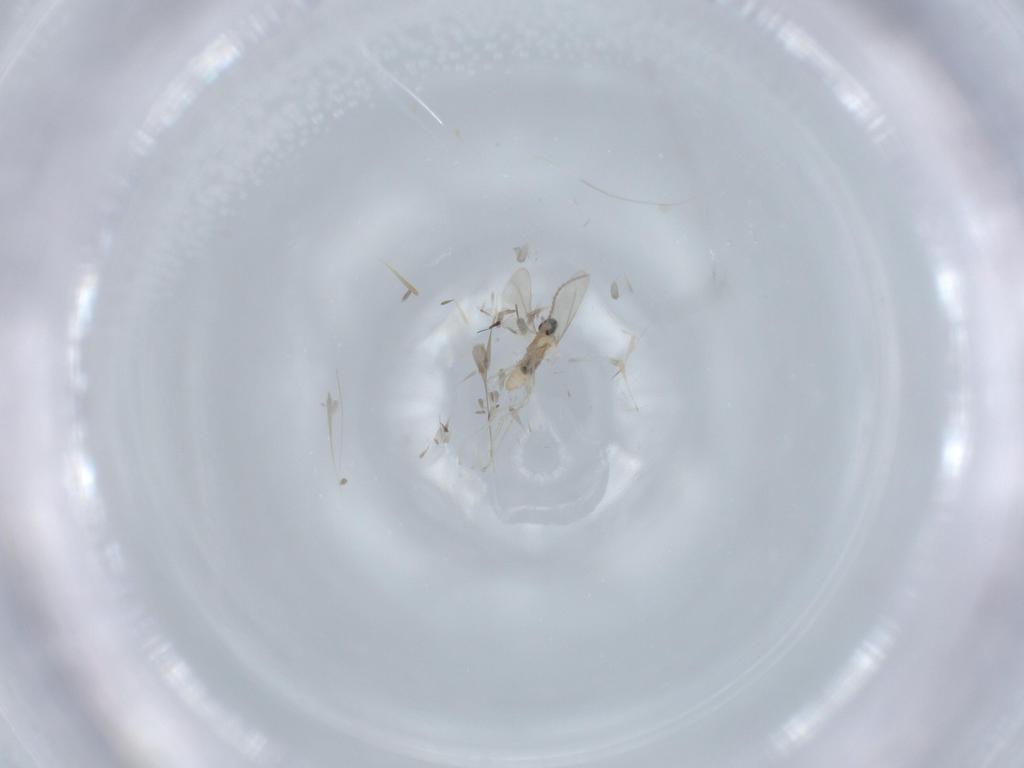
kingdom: Animalia
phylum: Arthropoda
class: Insecta
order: Diptera
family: Cecidomyiidae
